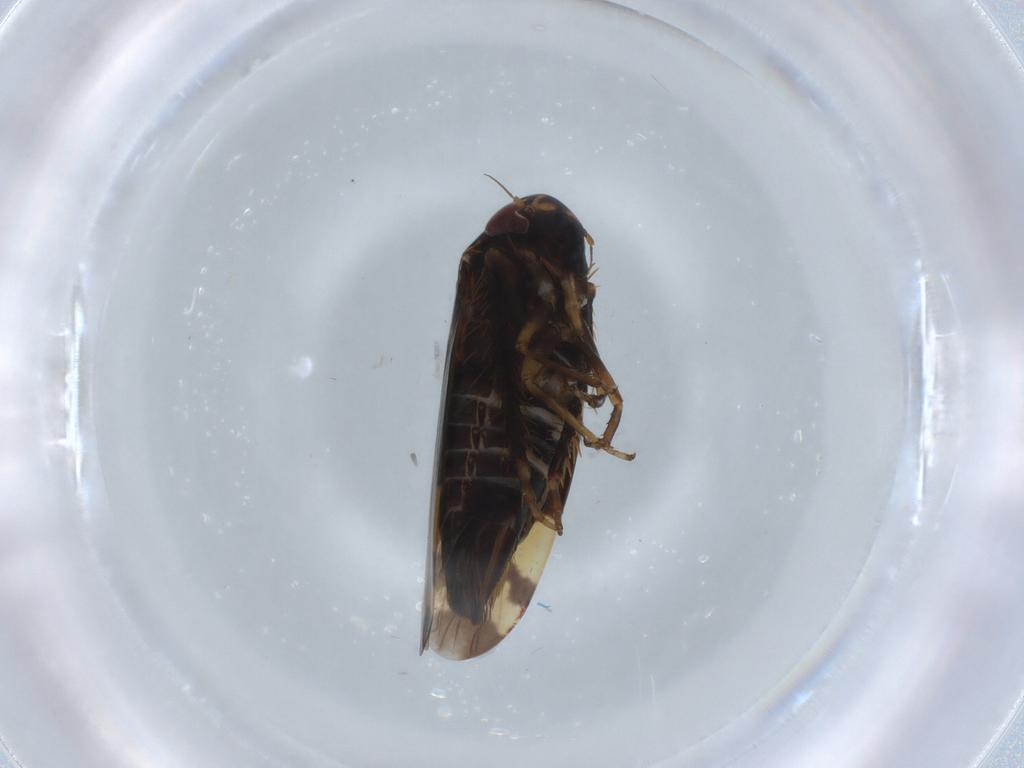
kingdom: Animalia
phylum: Arthropoda
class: Insecta
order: Hemiptera
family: Cicadellidae
